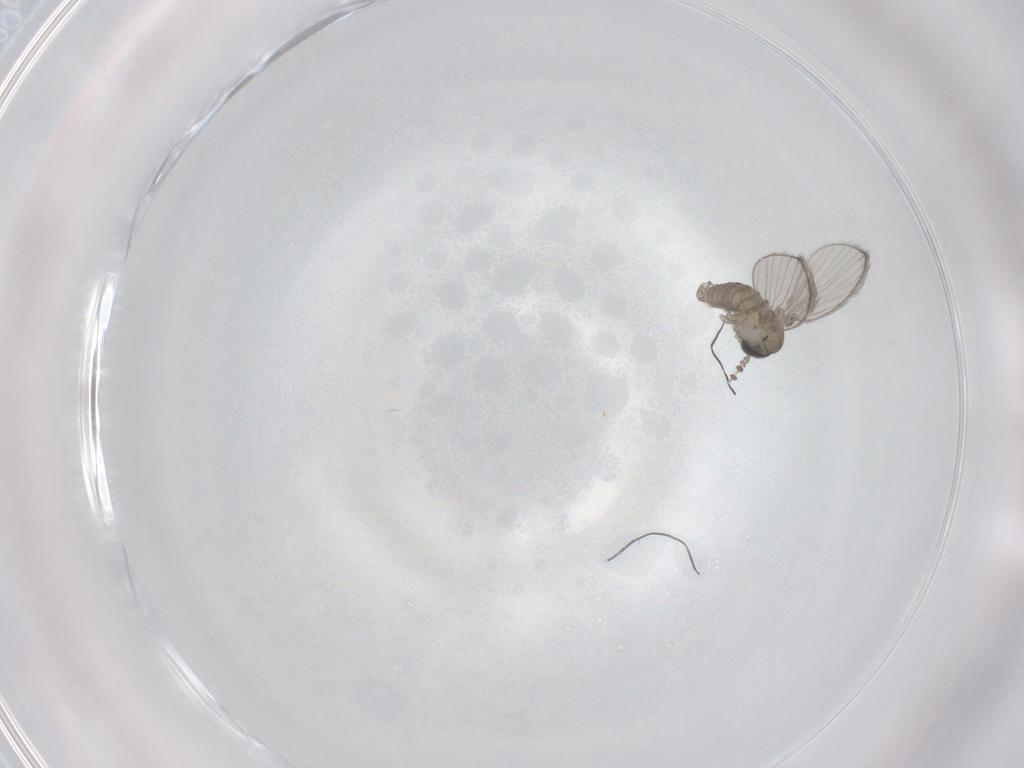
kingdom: Animalia
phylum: Arthropoda
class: Insecta
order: Diptera
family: Psychodidae
